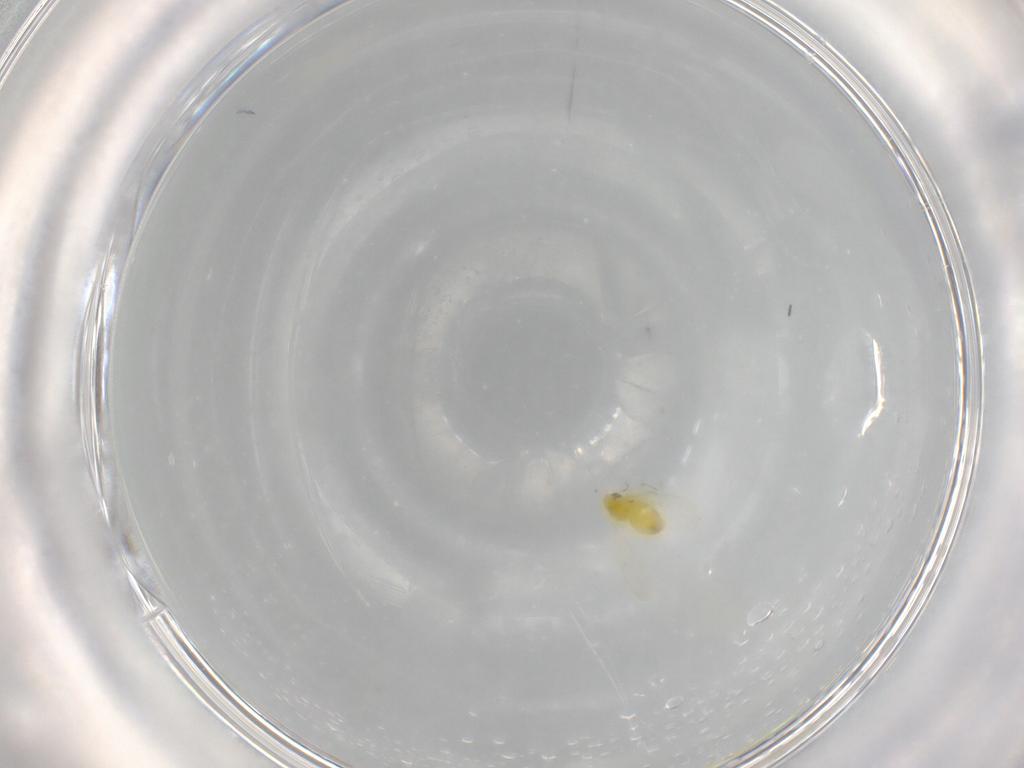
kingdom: Animalia
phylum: Arthropoda
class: Insecta
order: Hemiptera
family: Aleyrodidae
